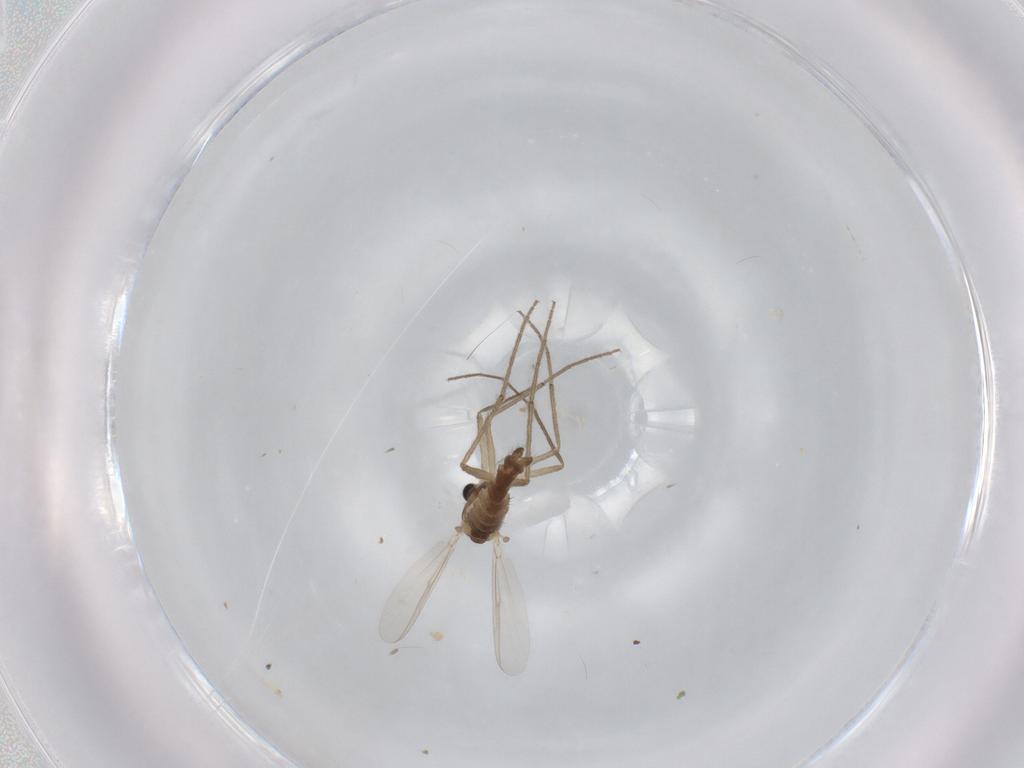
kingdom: Animalia
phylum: Arthropoda
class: Insecta
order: Diptera
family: Chironomidae
